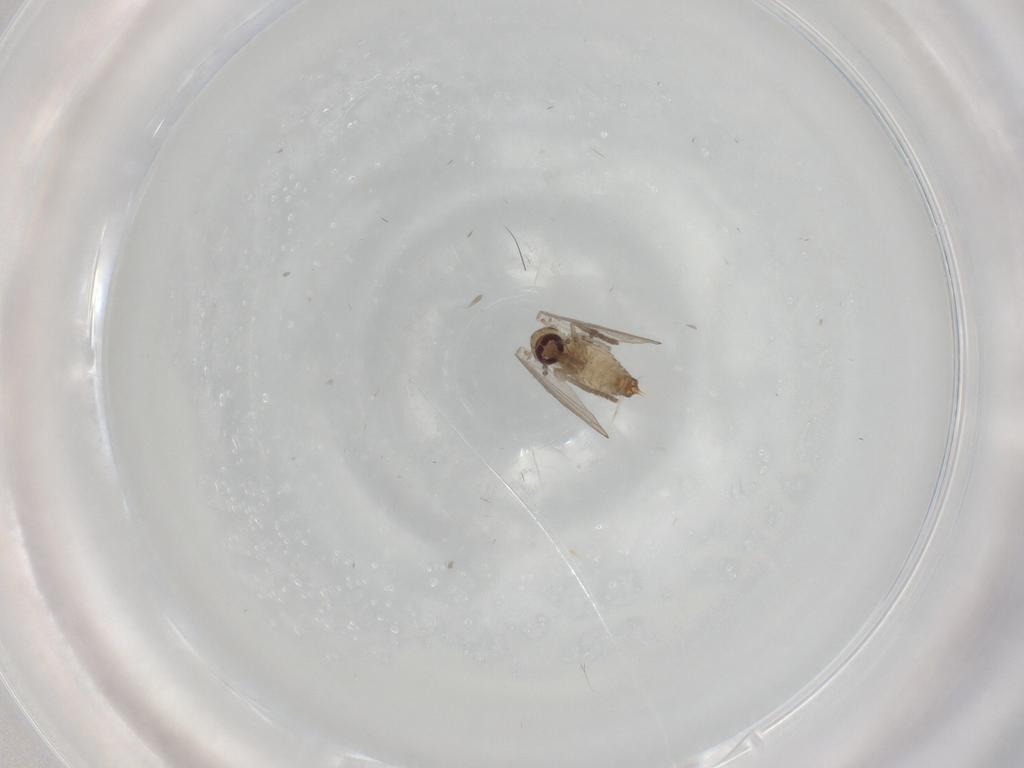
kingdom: Animalia
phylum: Arthropoda
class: Insecta
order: Diptera
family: Psychodidae
